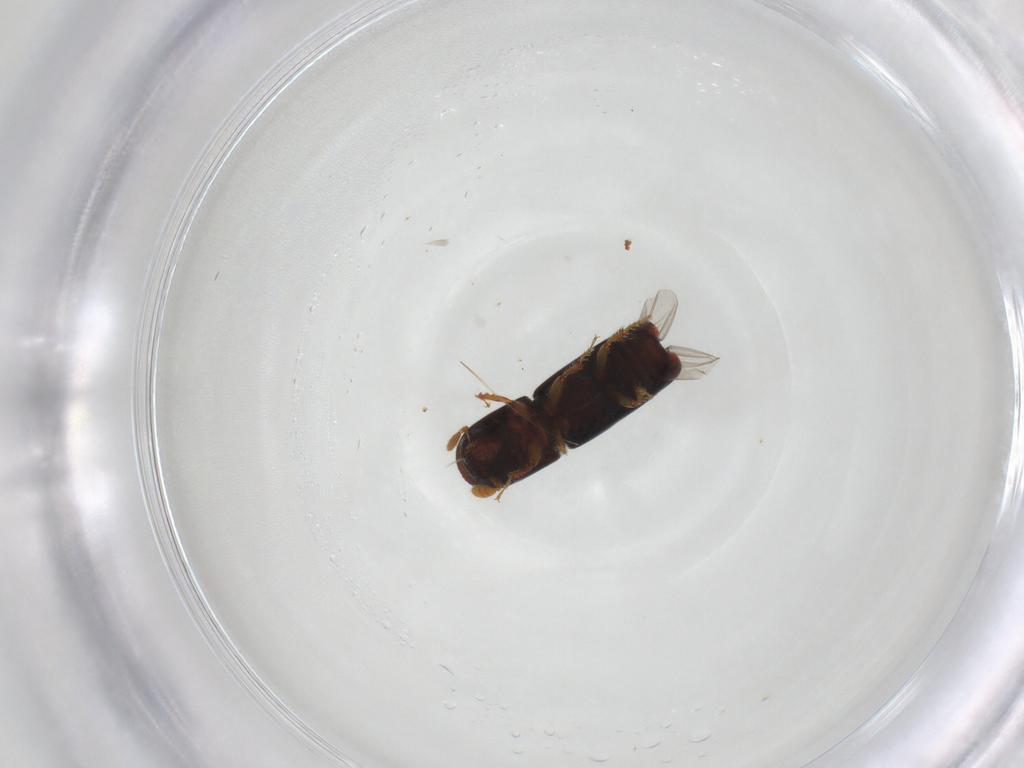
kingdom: Animalia
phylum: Arthropoda
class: Insecta
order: Coleoptera
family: Curculionidae
